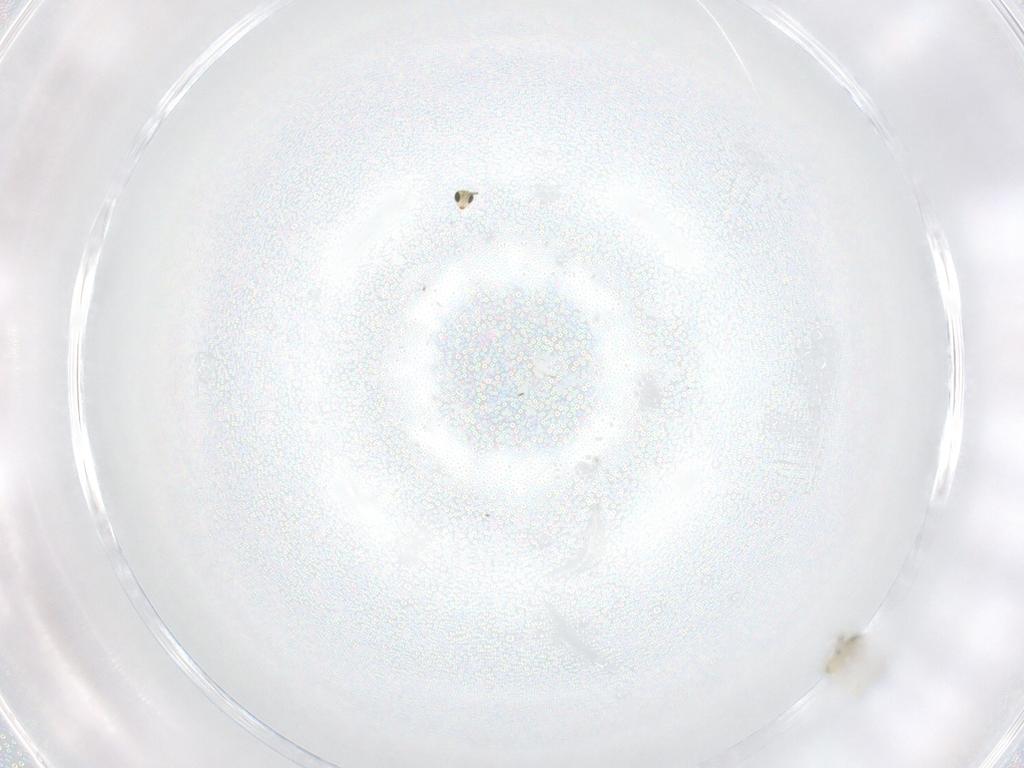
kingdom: Animalia
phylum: Arthropoda
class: Insecta
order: Hymenoptera
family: Trichogrammatidae
